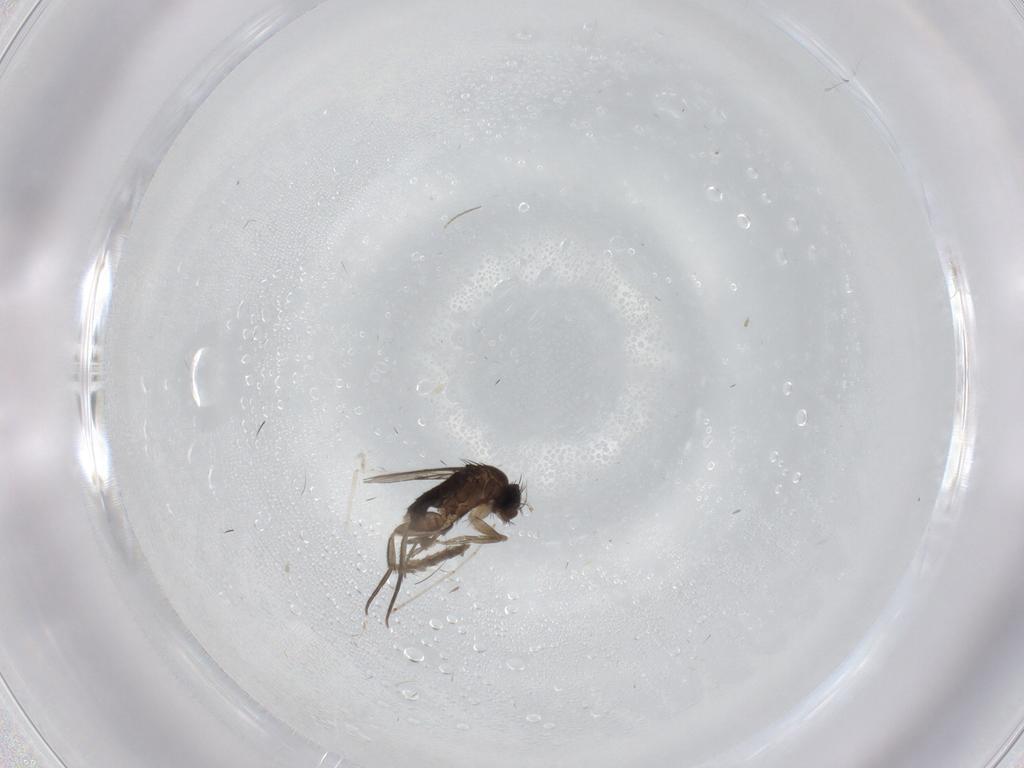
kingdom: Animalia
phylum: Arthropoda
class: Insecta
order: Diptera
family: Phoridae
